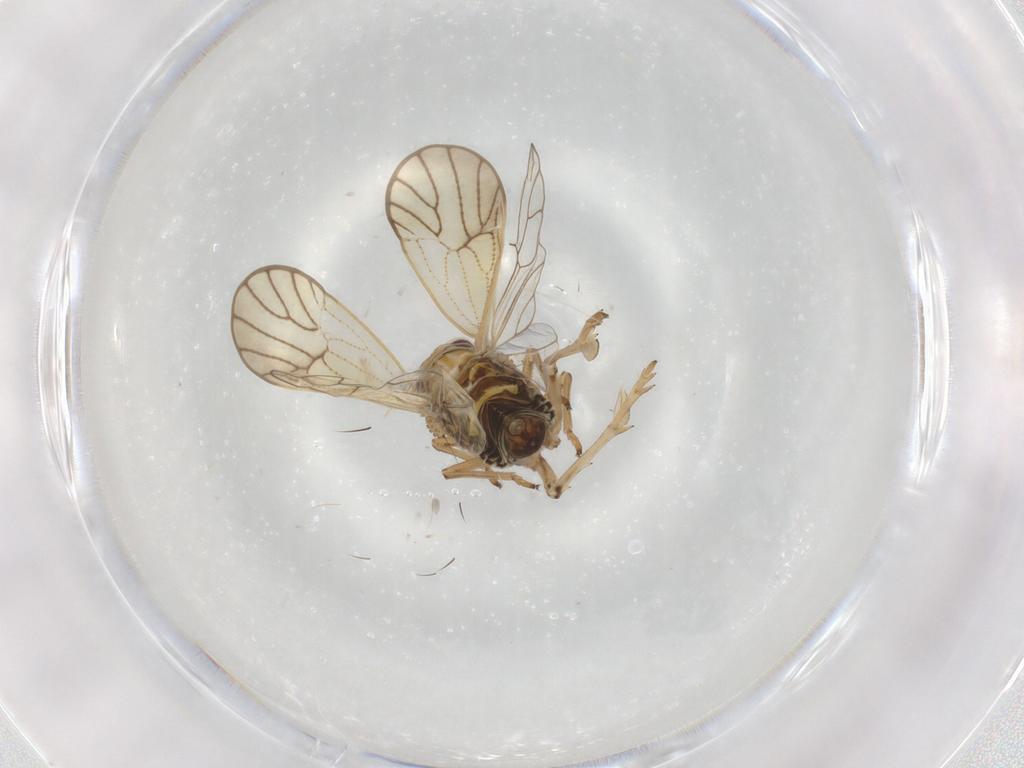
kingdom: Animalia
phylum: Arthropoda
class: Insecta
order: Hemiptera
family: Delphacidae
